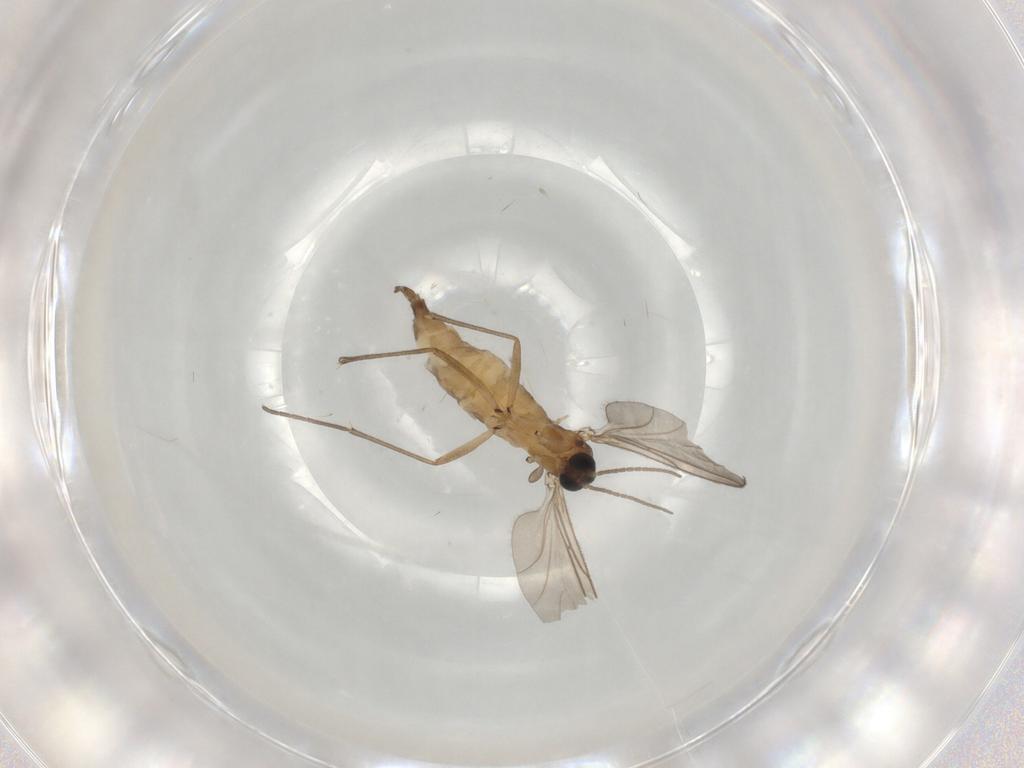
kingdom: Animalia
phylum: Arthropoda
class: Insecta
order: Diptera
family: Sciaridae
